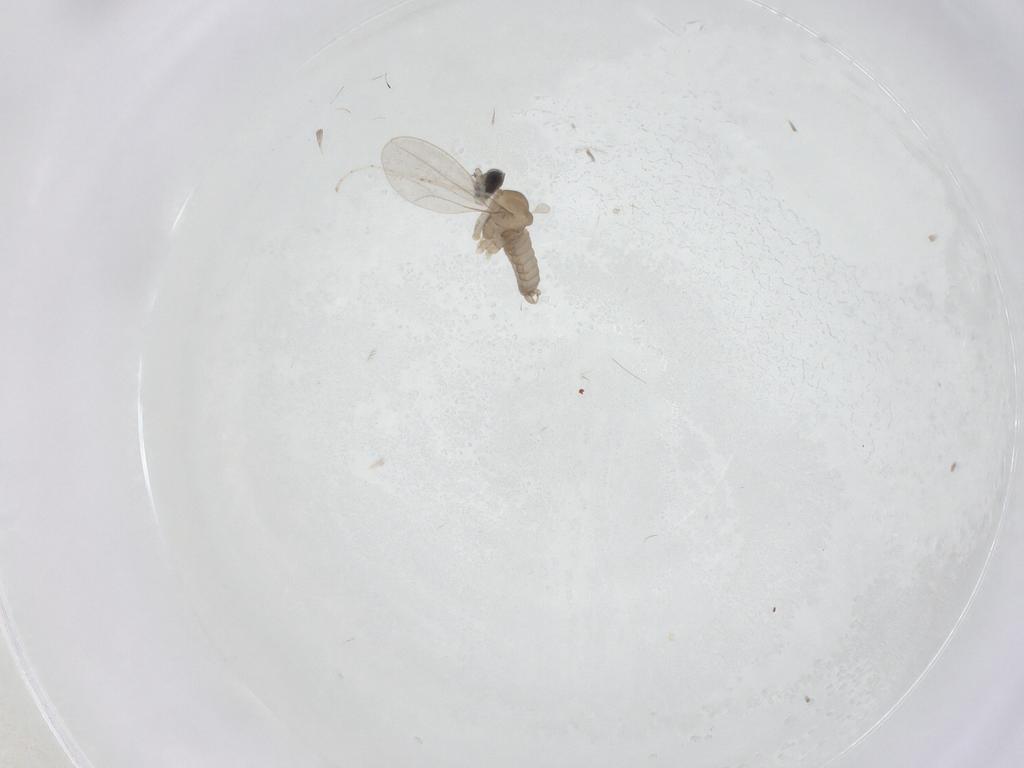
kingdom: Animalia
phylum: Arthropoda
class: Insecta
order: Diptera
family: Cecidomyiidae
